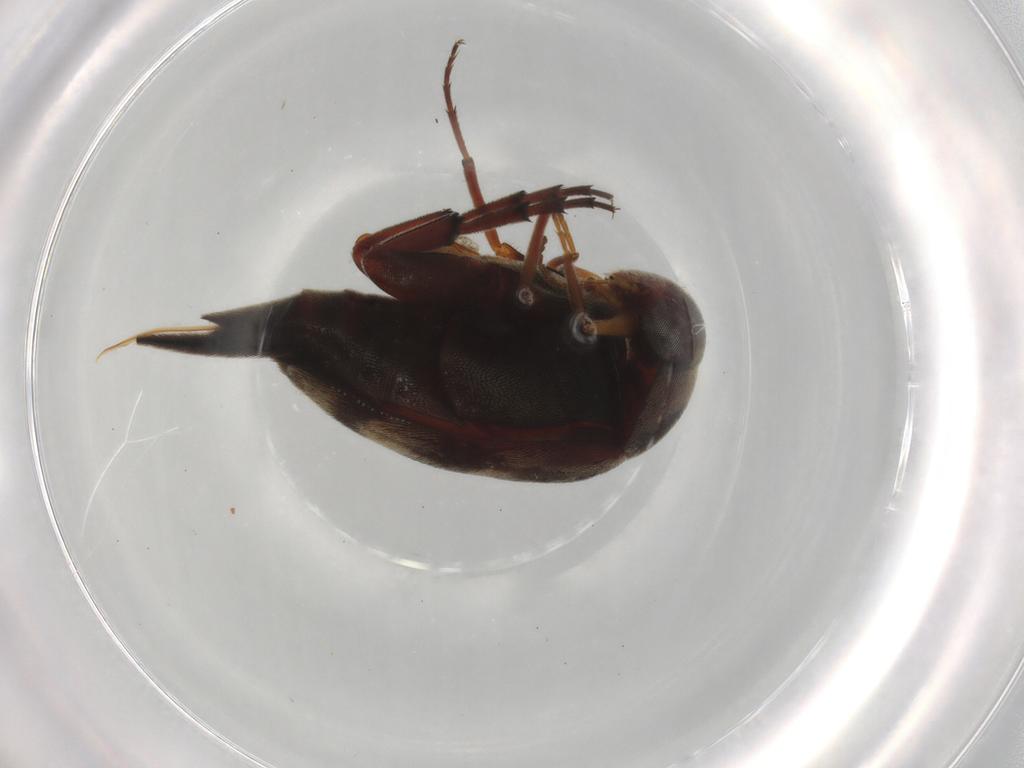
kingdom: Animalia
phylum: Arthropoda
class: Insecta
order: Coleoptera
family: Mordellidae
